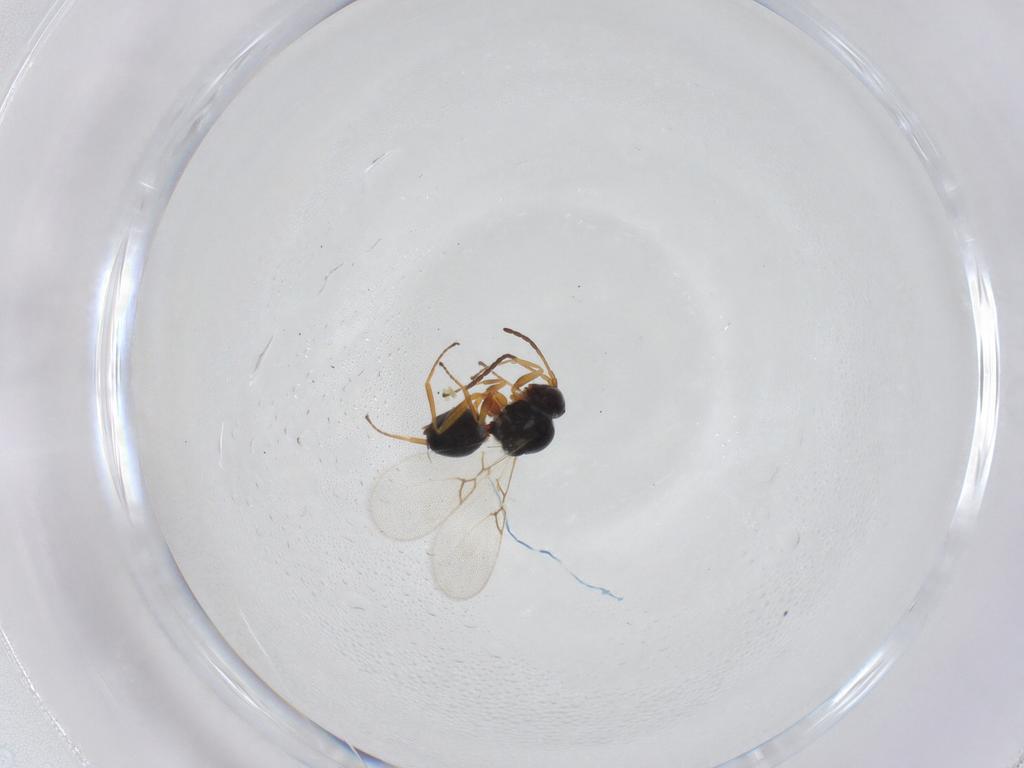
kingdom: Animalia
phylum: Arthropoda
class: Insecta
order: Hymenoptera
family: Figitidae
